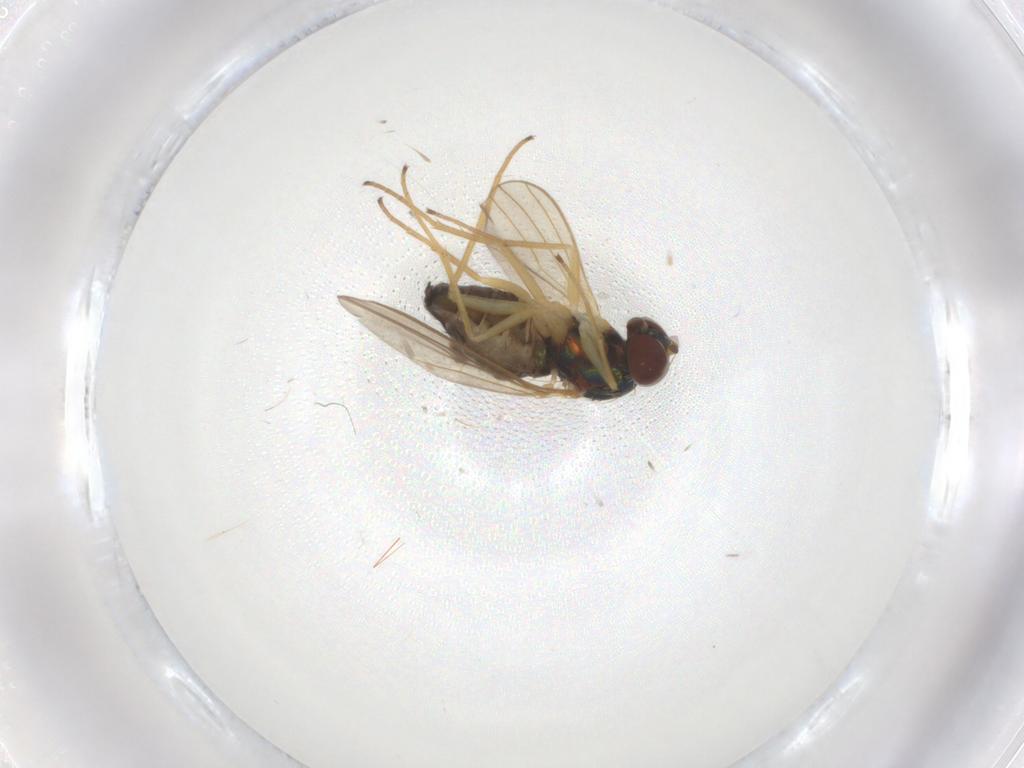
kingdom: Animalia
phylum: Arthropoda
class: Insecta
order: Diptera
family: Dolichopodidae
